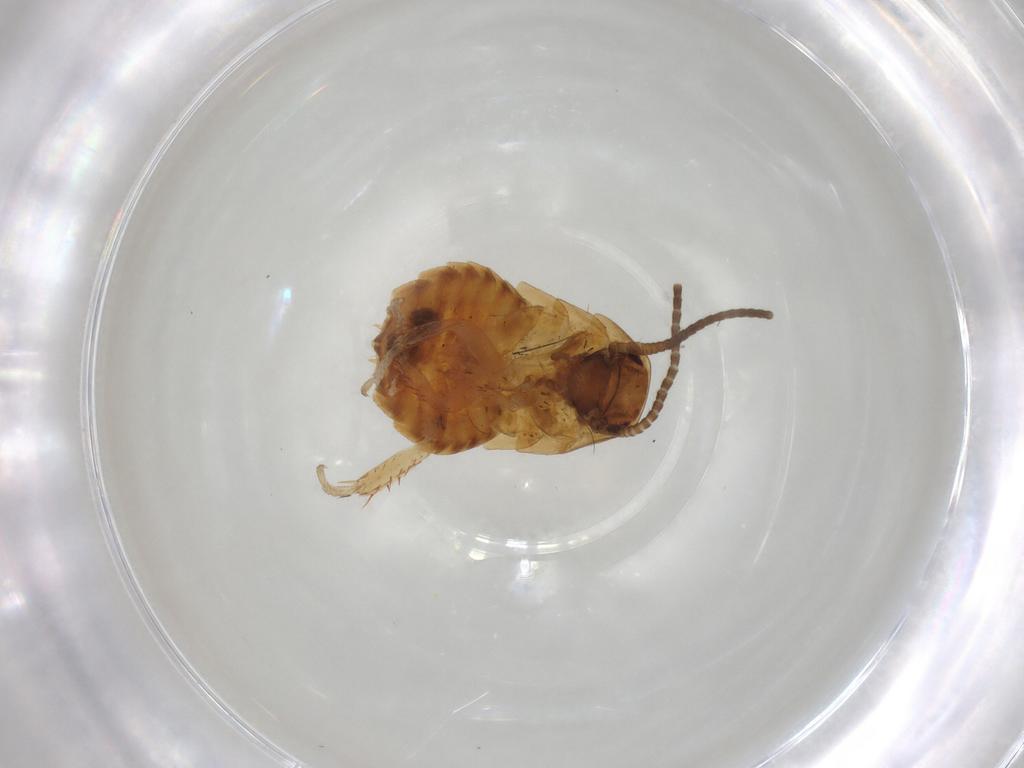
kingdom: Animalia
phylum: Arthropoda
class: Insecta
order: Blattodea
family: Blaberidae
